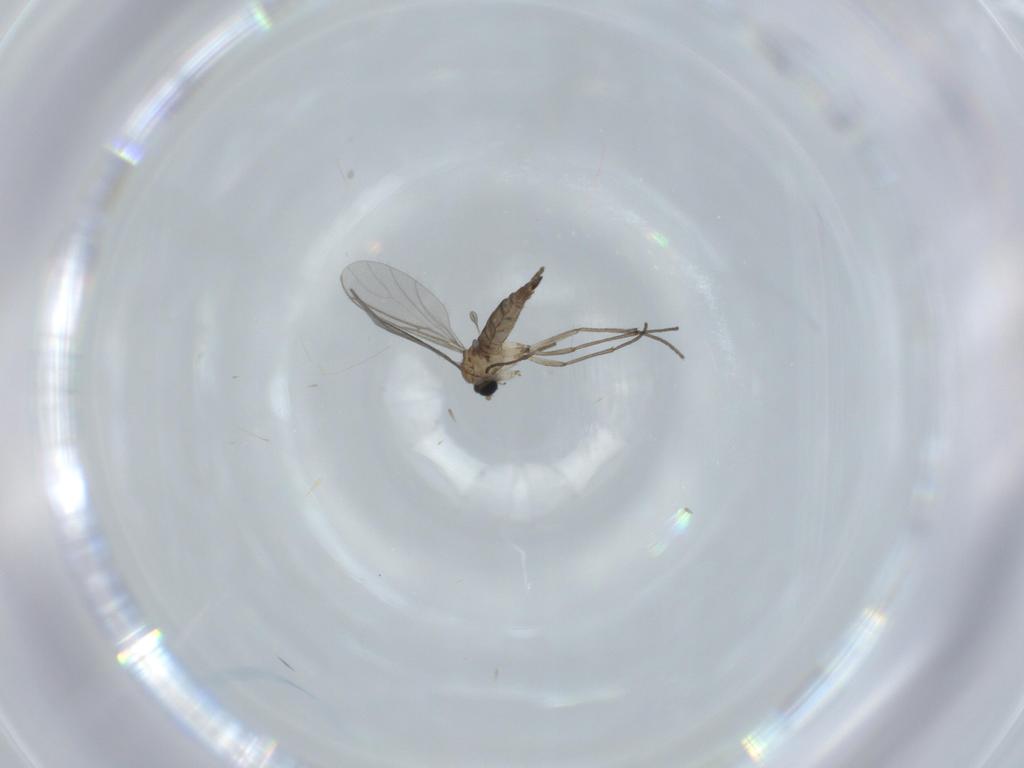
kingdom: Animalia
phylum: Arthropoda
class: Insecta
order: Diptera
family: Sciaridae
